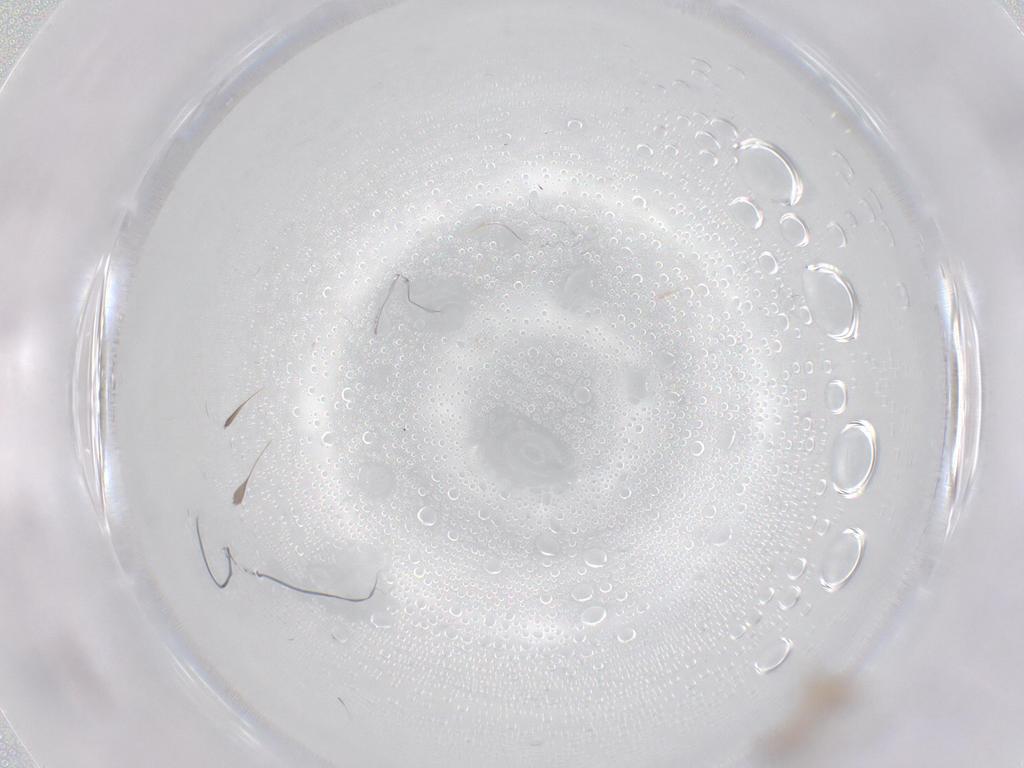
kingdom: Animalia
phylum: Arthropoda
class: Insecta
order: Hymenoptera
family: Formicidae
